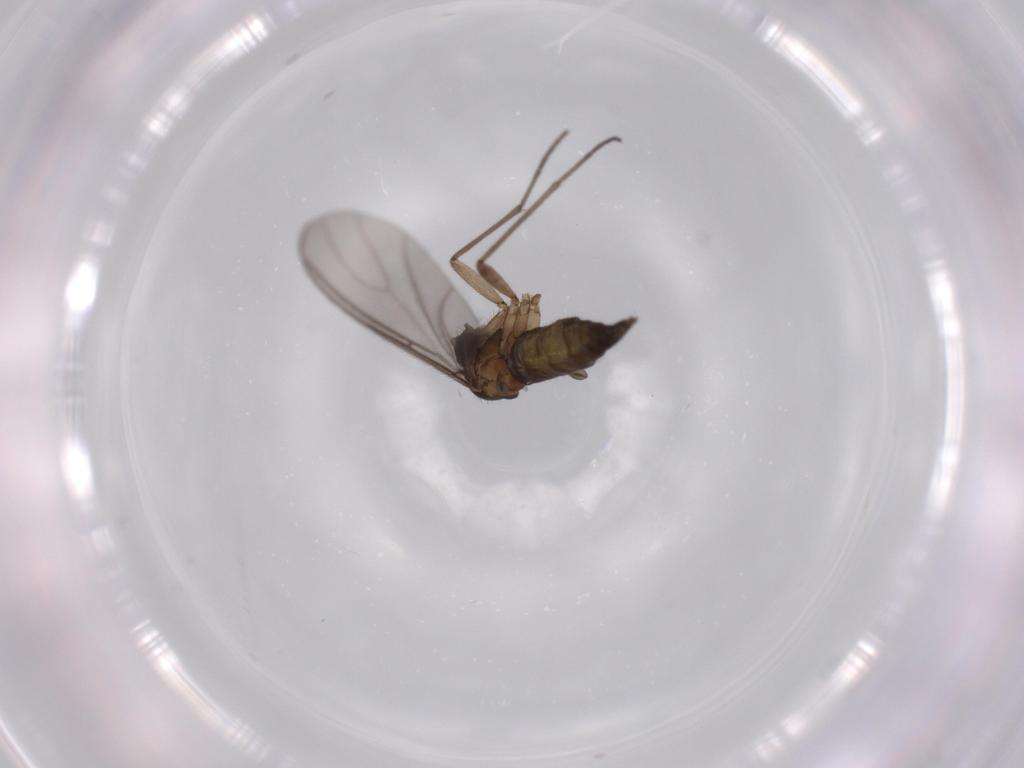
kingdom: Animalia
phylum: Arthropoda
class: Insecta
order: Diptera
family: Sciaridae
